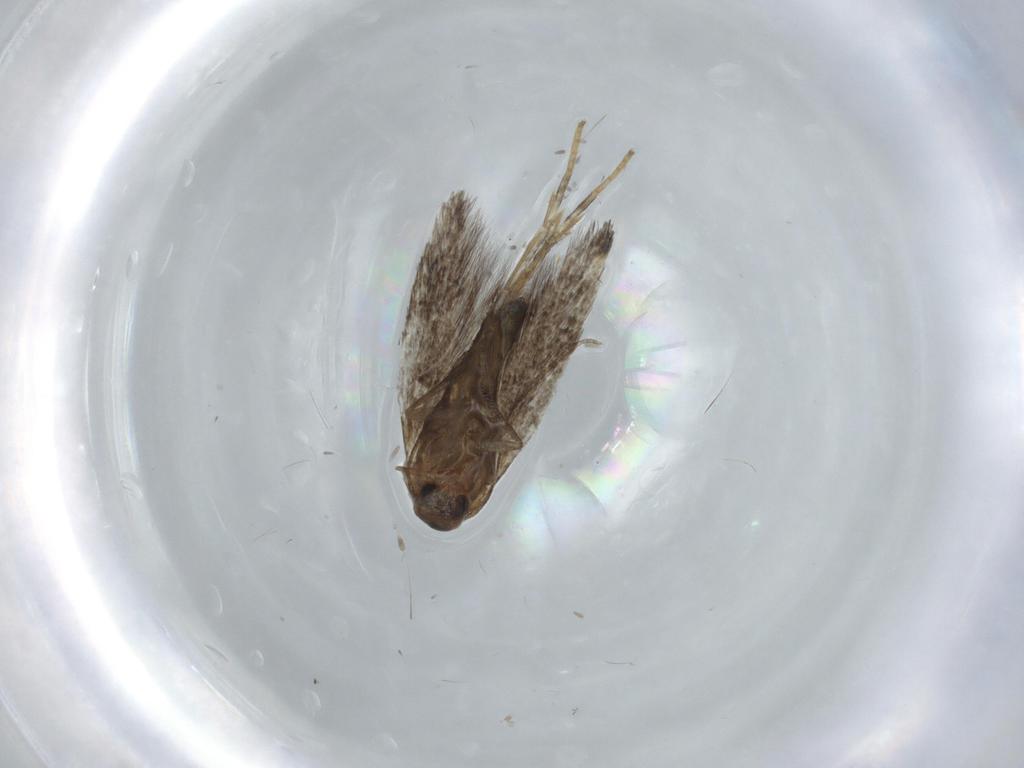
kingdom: Animalia
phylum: Arthropoda
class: Insecta
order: Lepidoptera
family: Cosmopterigidae
